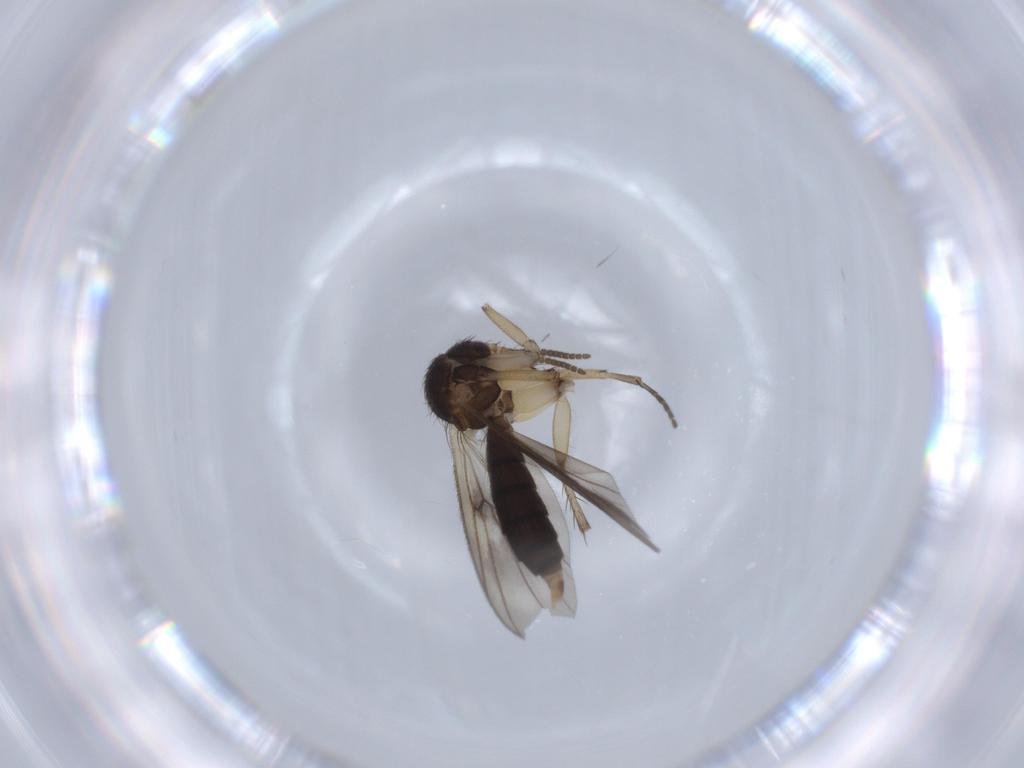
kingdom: Animalia
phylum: Arthropoda
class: Insecta
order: Diptera
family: Mycetophilidae
